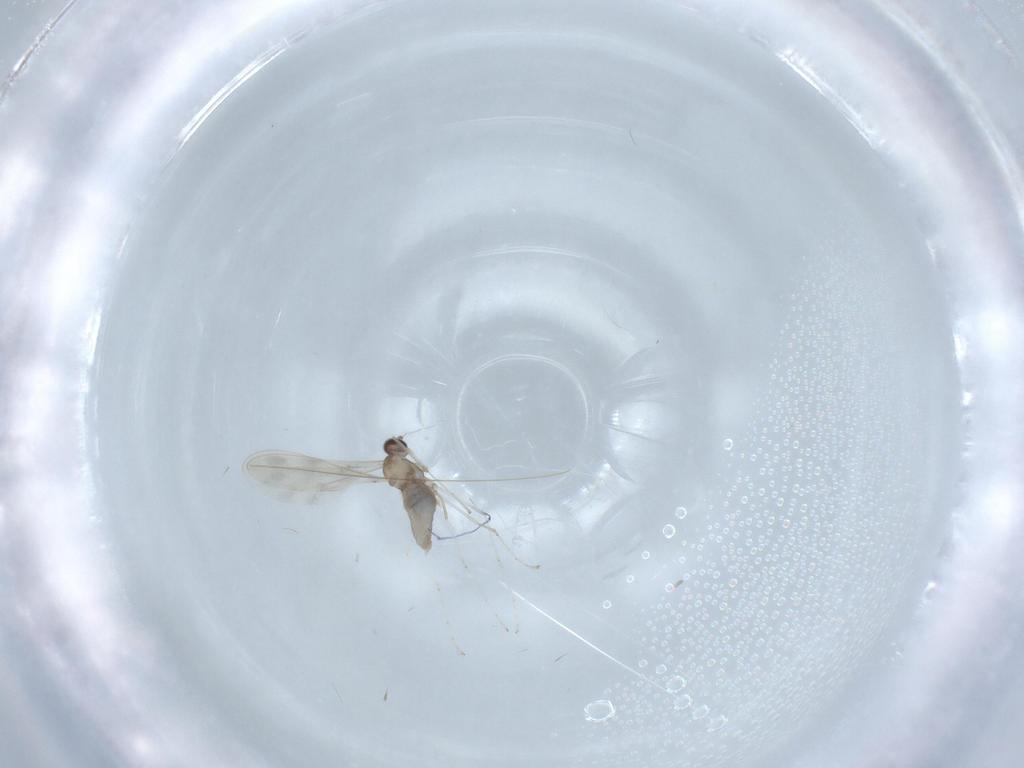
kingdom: Animalia
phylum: Arthropoda
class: Insecta
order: Diptera
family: Cecidomyiidae
